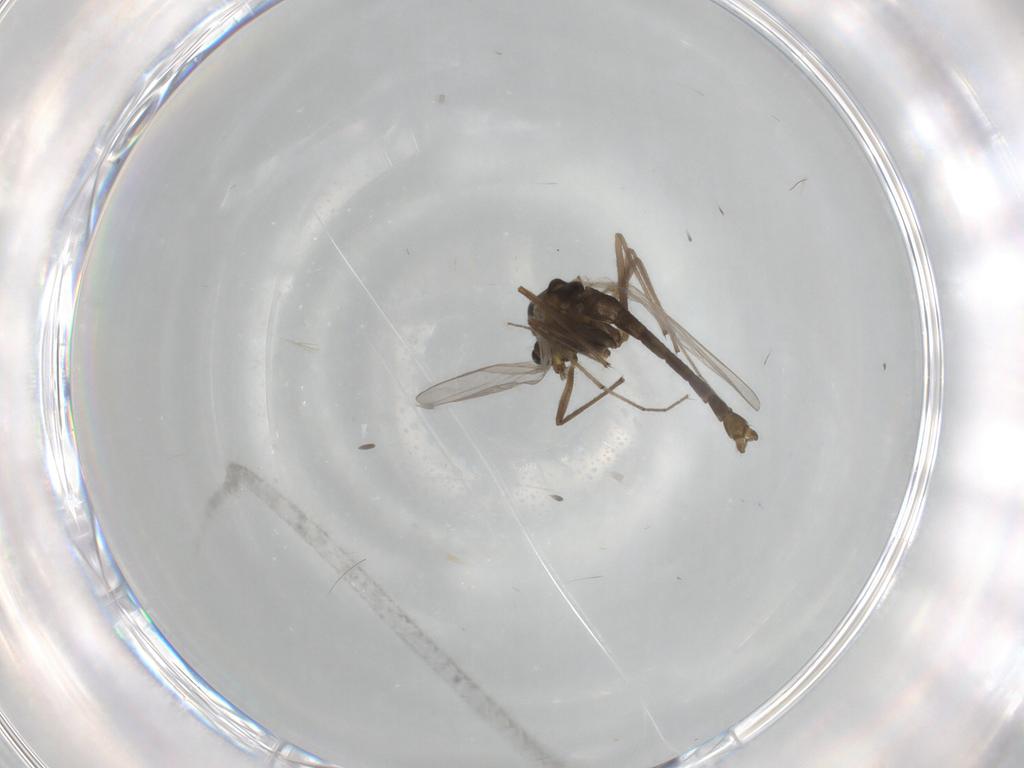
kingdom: Animalia
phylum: Arthropoda
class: Insecta
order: Diptera
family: Chironomidae
